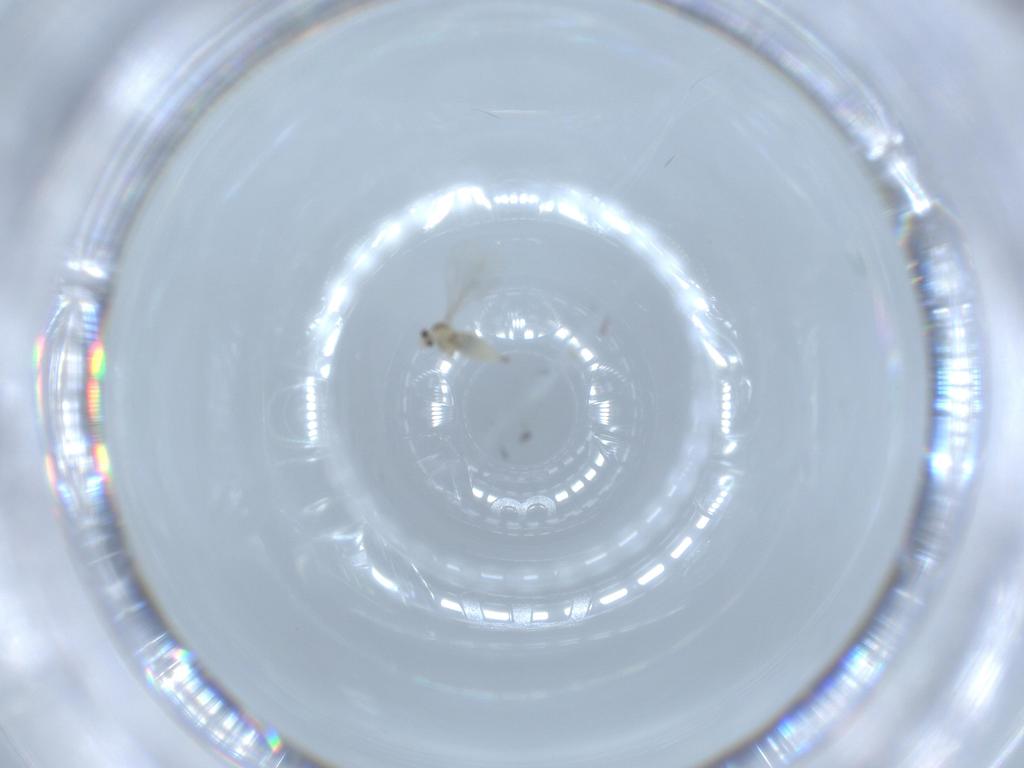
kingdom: Animalia
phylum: Arthropoda
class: Insecta
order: Diptera
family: Cecidomyiidae
